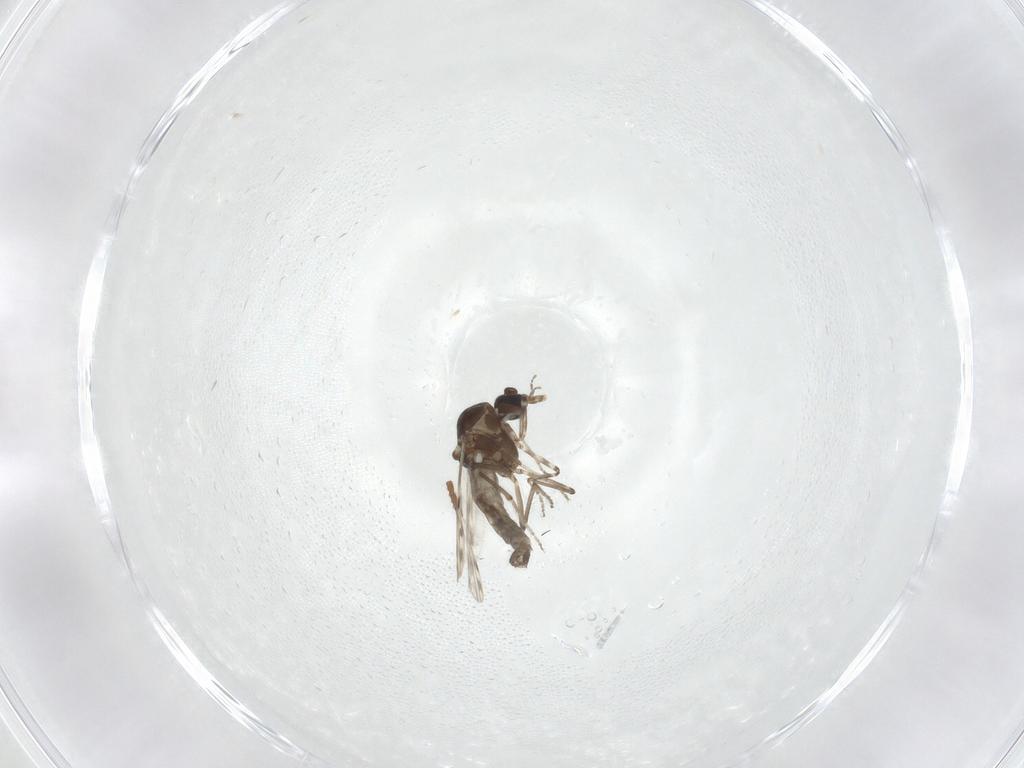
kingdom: Animalia
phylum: Arthropoda
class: Insecta
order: Diptera
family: Ceratopogonidae
